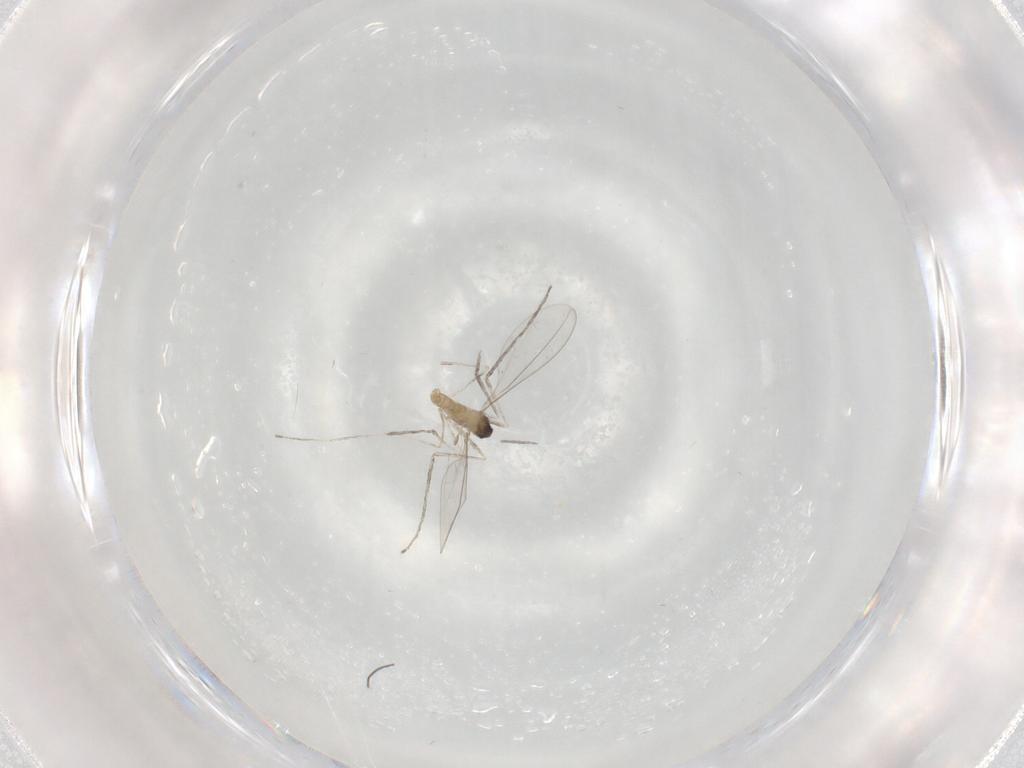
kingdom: Animalia
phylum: Arthropoda
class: Insecta
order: Diptera
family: Cecidomyiidae
